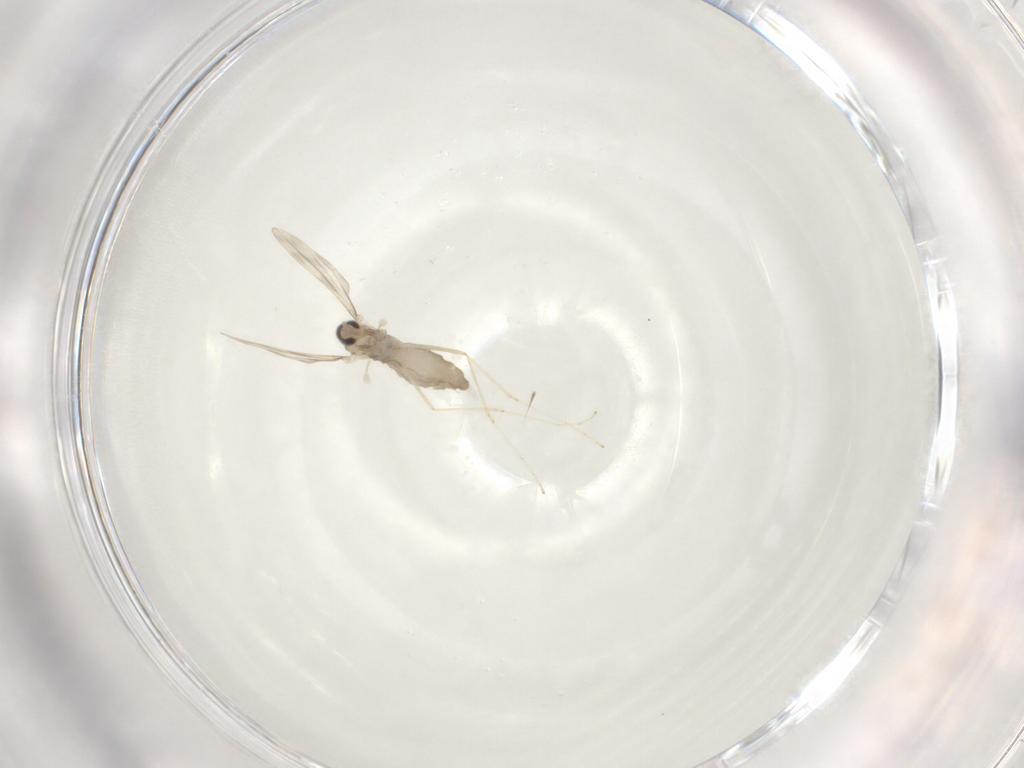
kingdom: Animalia
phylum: Arthropoda
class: Insecta
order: Diptera
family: Cecidomyiidae
